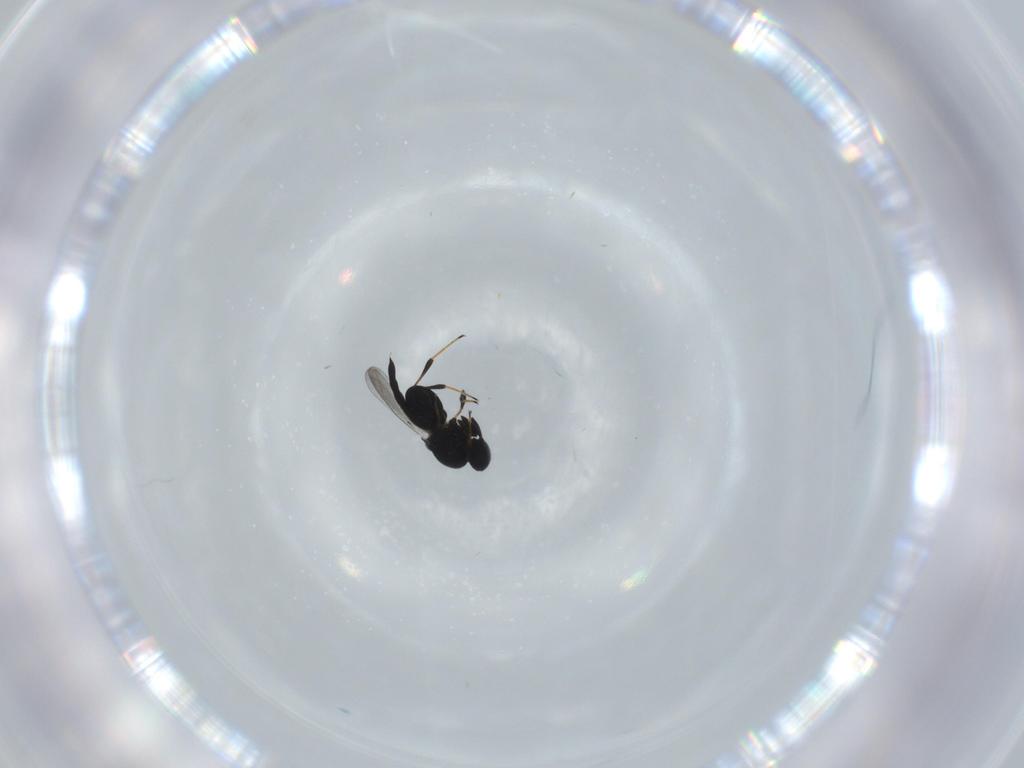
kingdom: Animalia
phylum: Arthropoda
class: Insecta
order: Hymenoptera
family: Platygastridae
